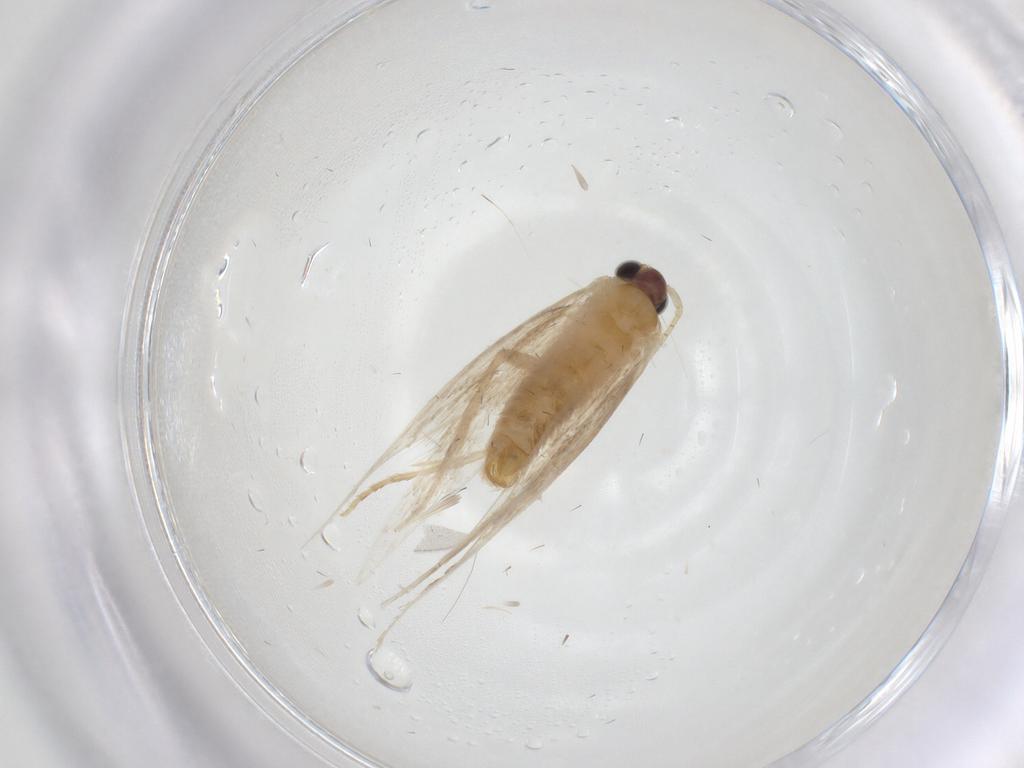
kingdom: Animalia
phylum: Arthropoda
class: Insecta
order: Lepidoptera
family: Tineidae
